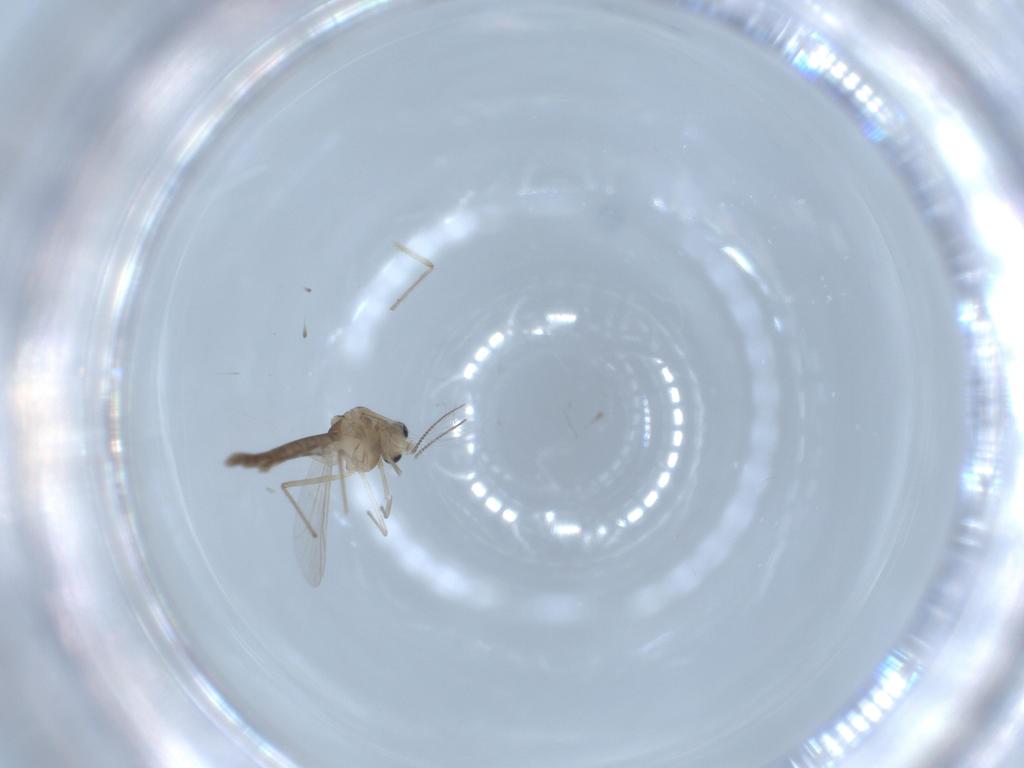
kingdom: Animalia
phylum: Arthropoda
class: Insecta
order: Diptera
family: Chironomidae
